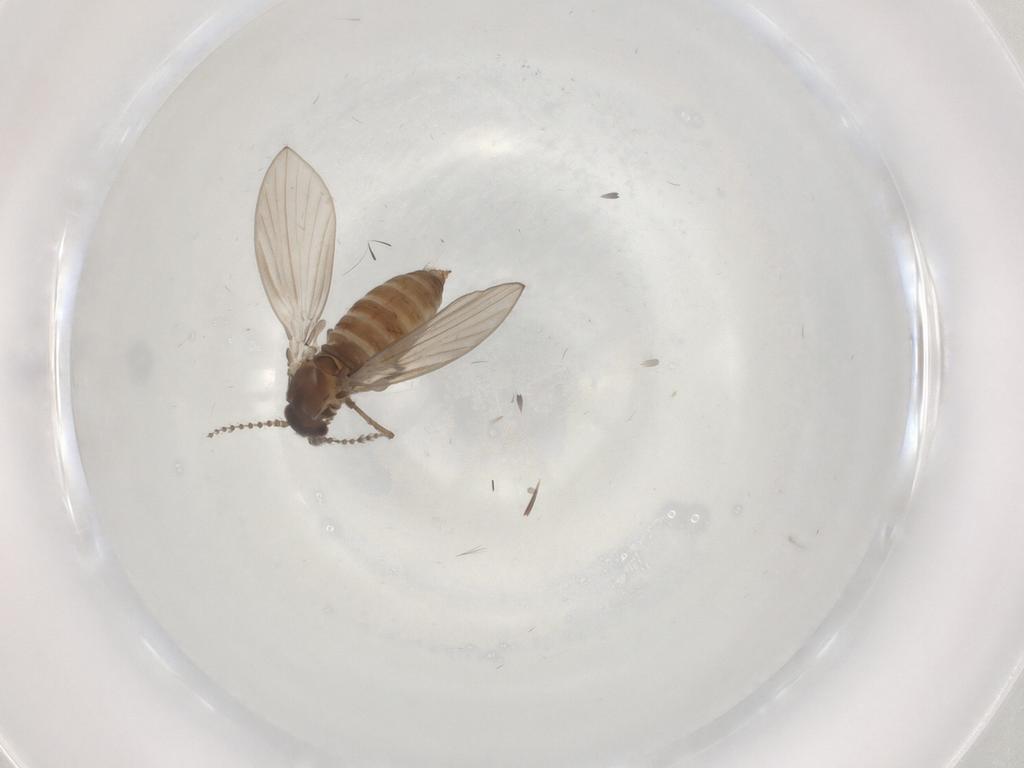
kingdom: Animalia
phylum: Arthropoda
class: Insecta
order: Diptera
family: Psychodidae
